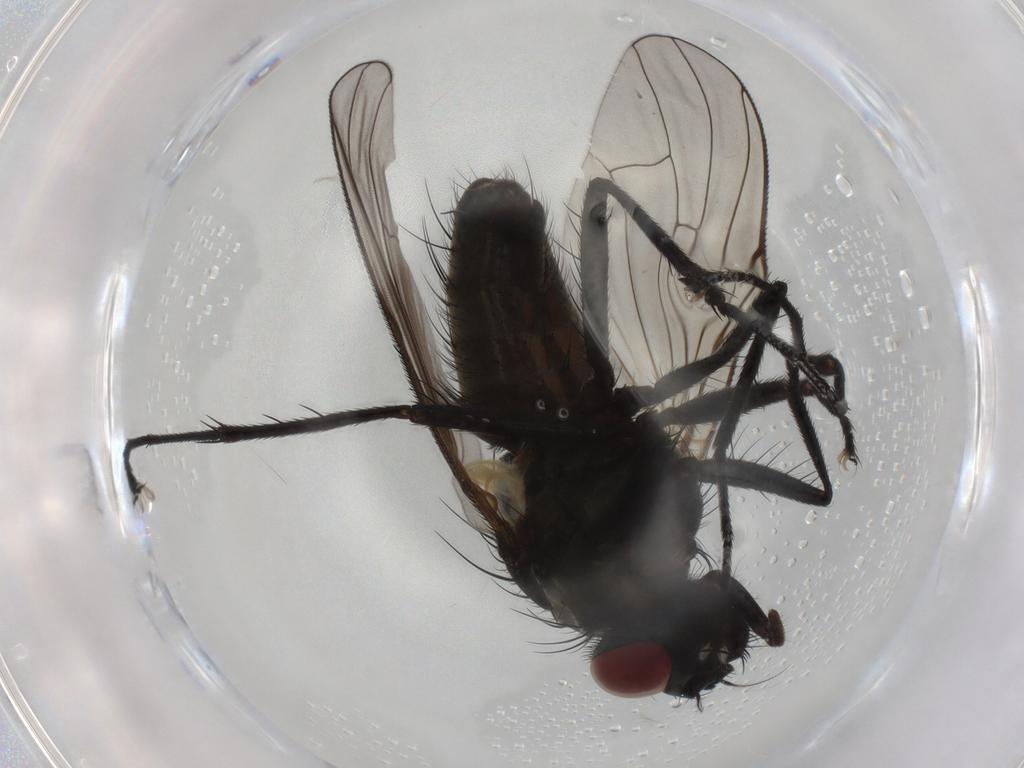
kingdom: Animalia
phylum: Arthropoda
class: Insecta
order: Diptera
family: Muscidae
